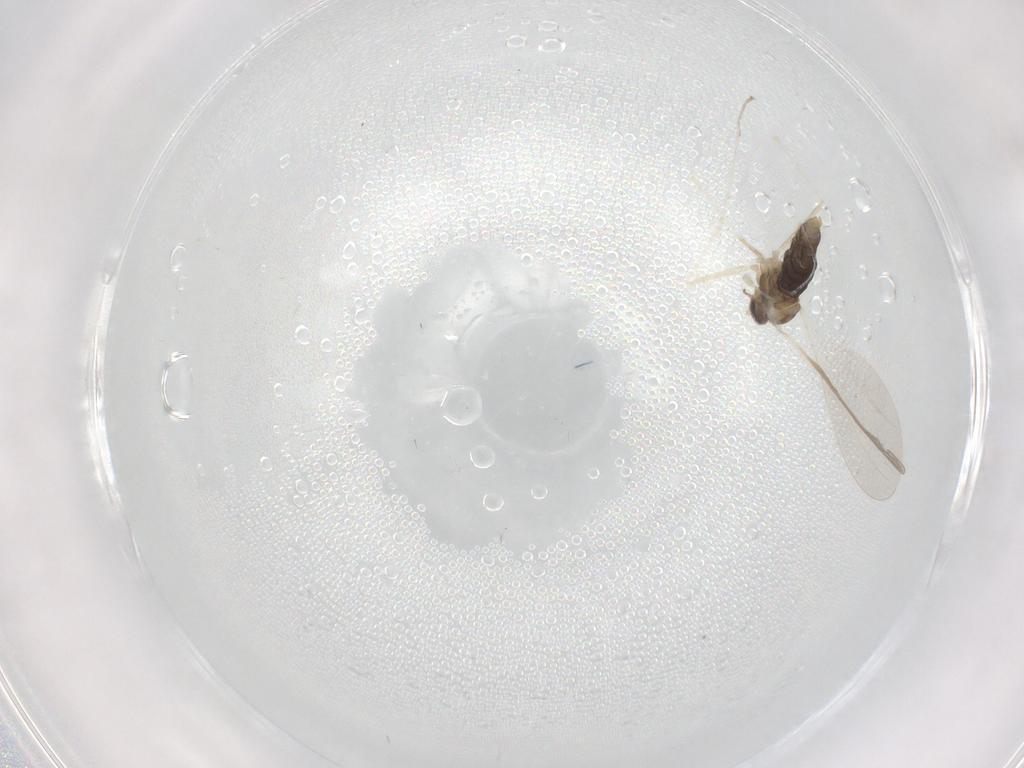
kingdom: Animalia
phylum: Arthropoda
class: Insecta
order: Diptera
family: Cecidomyiidae
